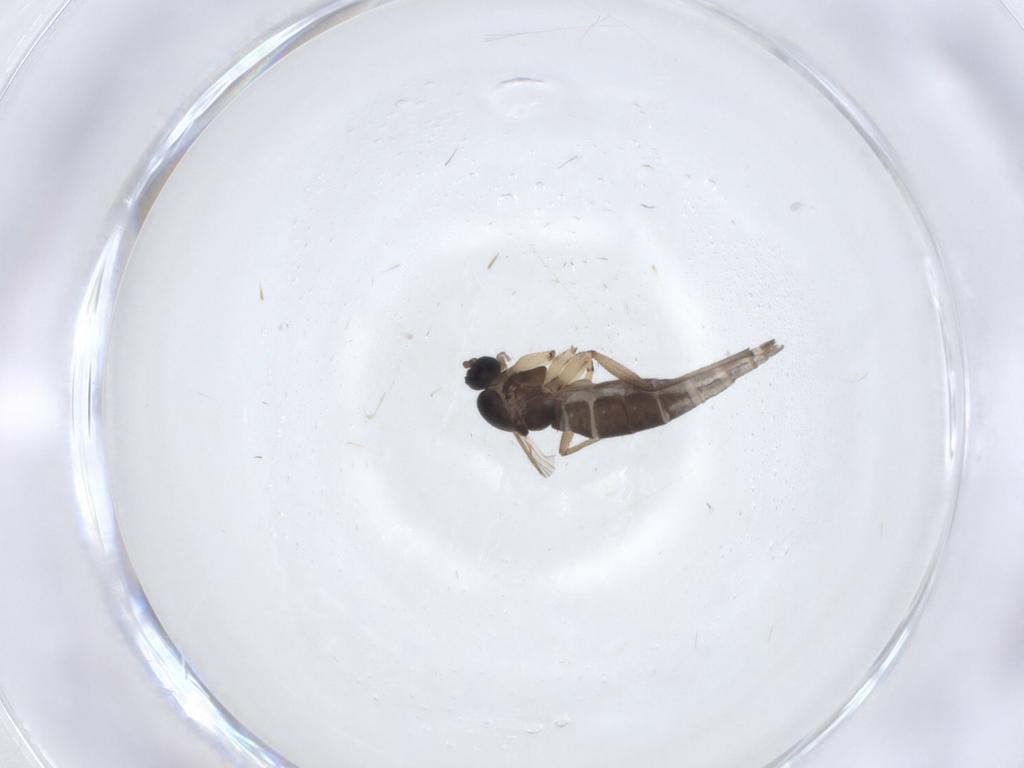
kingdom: Animalia
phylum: Arthropoda
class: Insecta
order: Diptera
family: Sciaridae
